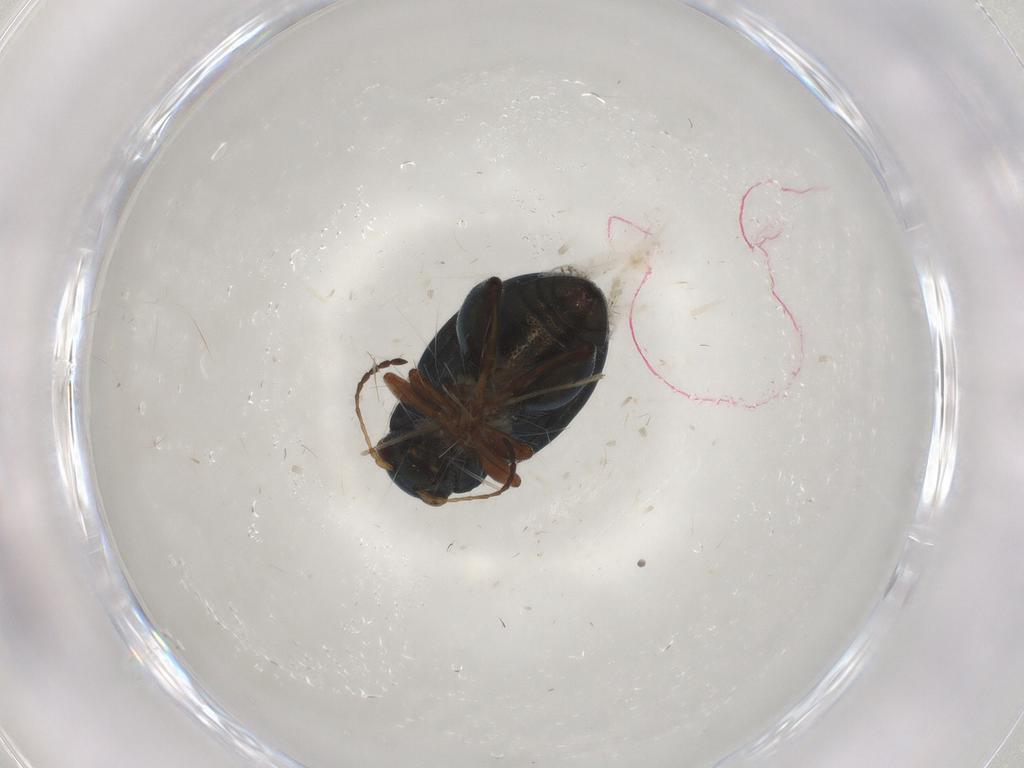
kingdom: Animalia
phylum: Arthropoda
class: Insecta
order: Coleoptera
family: Chrysomelidae
